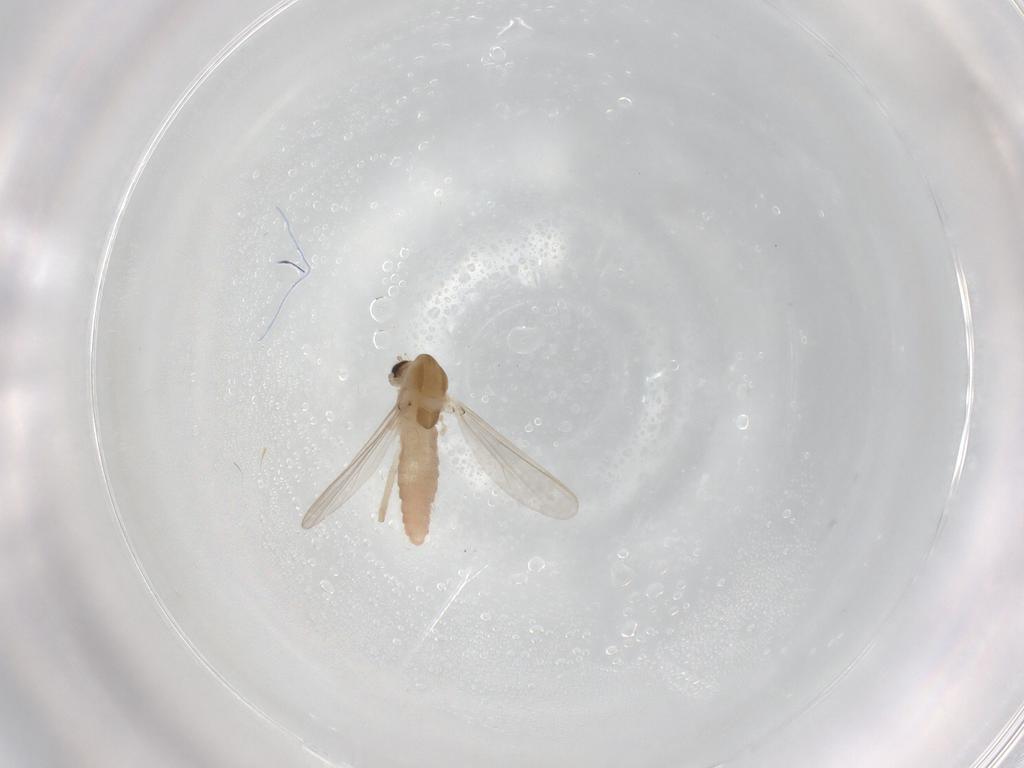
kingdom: Animalia
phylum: Arthropoda
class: Insecta
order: Diptera
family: Chironomidae
